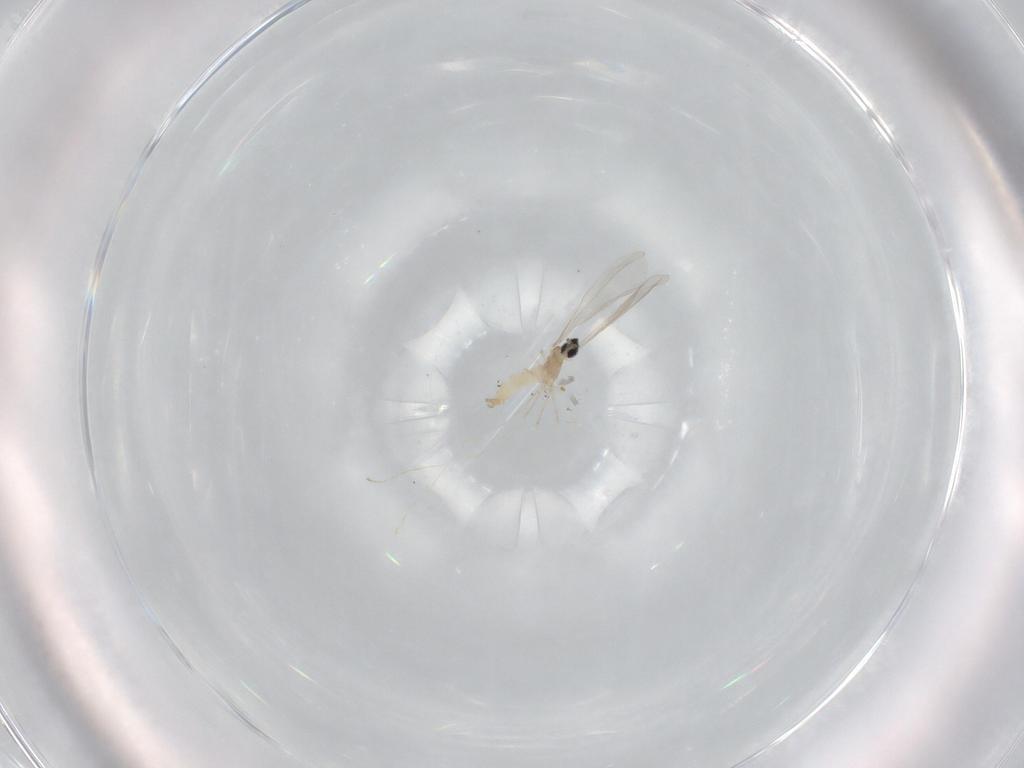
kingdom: Animalia
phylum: Arthropoda
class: Insecta
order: Diptera
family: Cecidomyiidae
